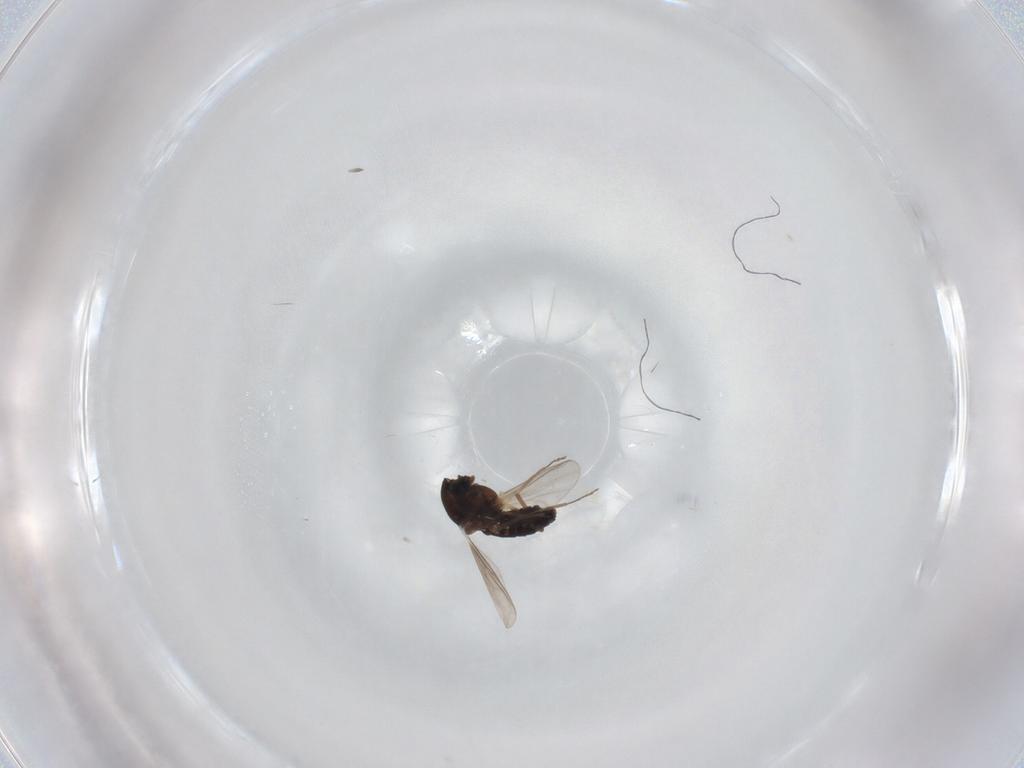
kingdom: Animalia
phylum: Arthropoda
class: Insecta
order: Diptera
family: Chironomidae
